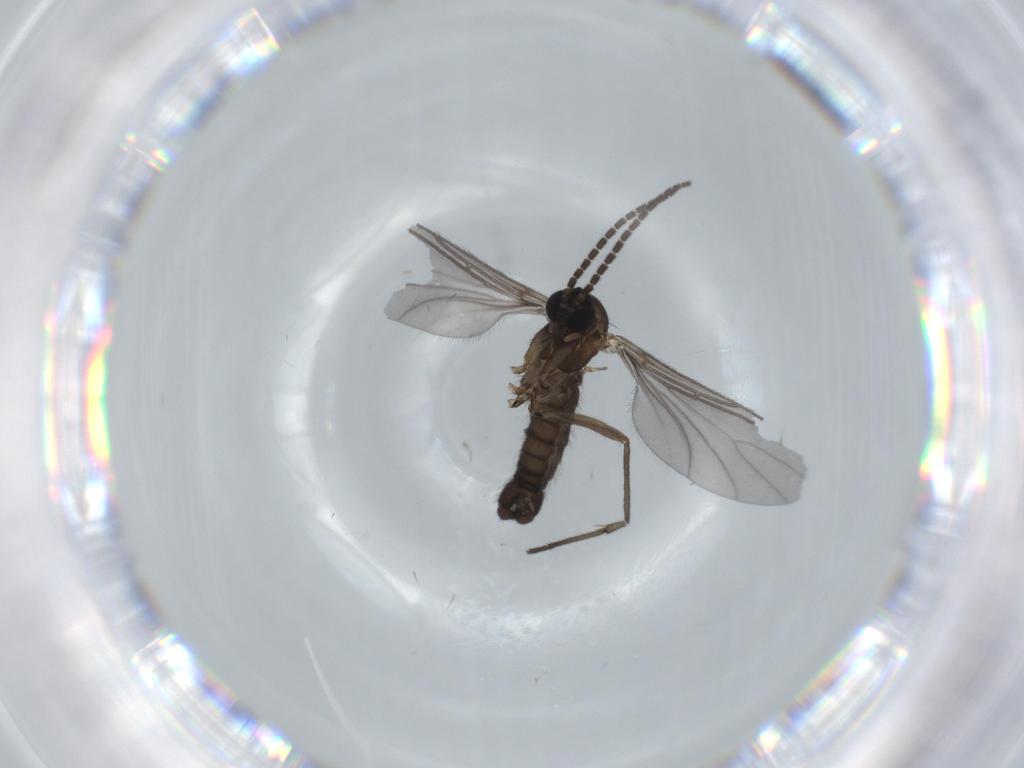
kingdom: Animalia
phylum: Arthropoda
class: Insecta
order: Diptera
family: Sciaridae
